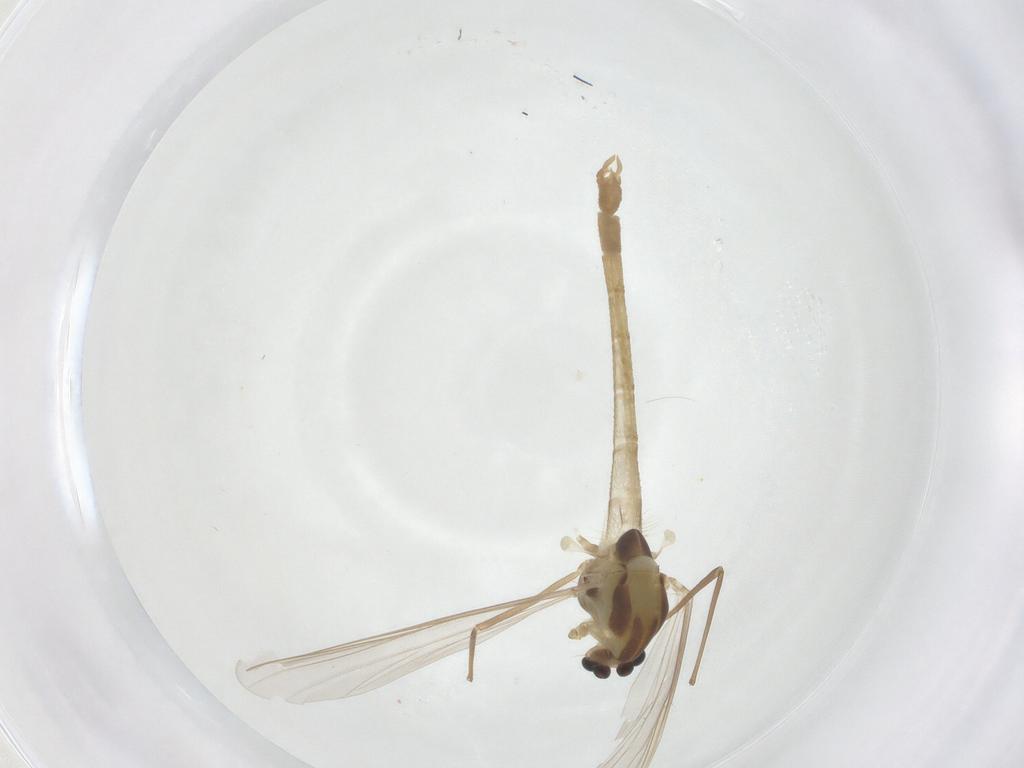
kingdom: Animalia
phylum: Arthropoda
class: Insecta
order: Diptera
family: Chironomidae
